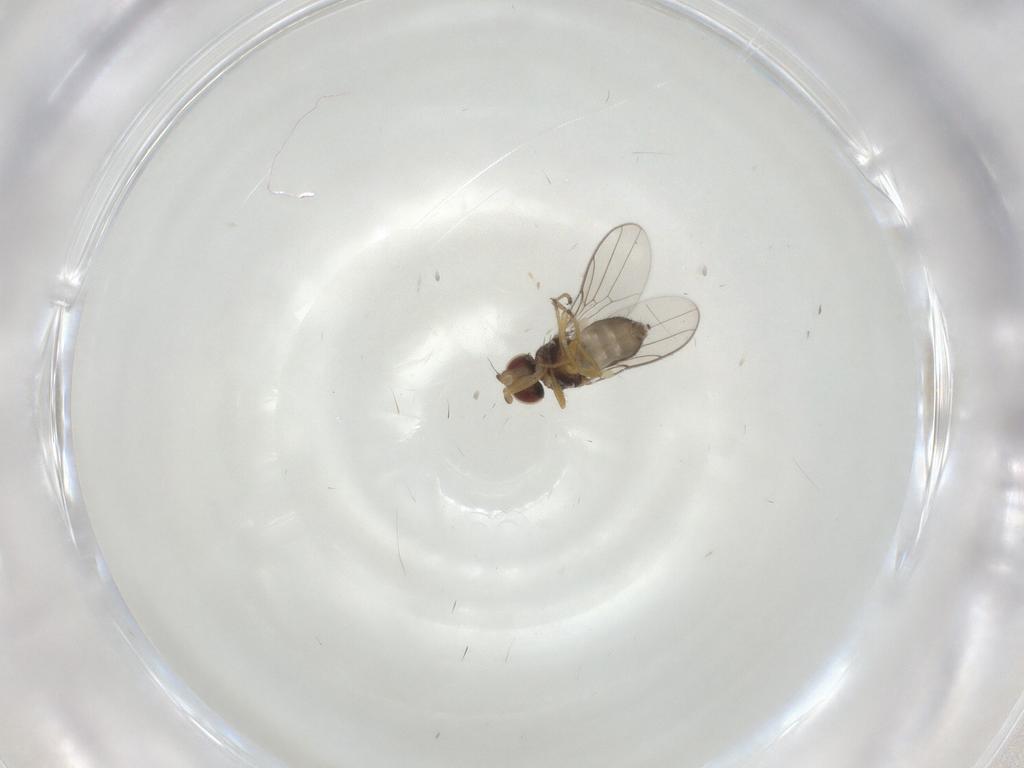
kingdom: Animalia
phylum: Arthropoda
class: Insecta
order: Diptera
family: Chloropidae
